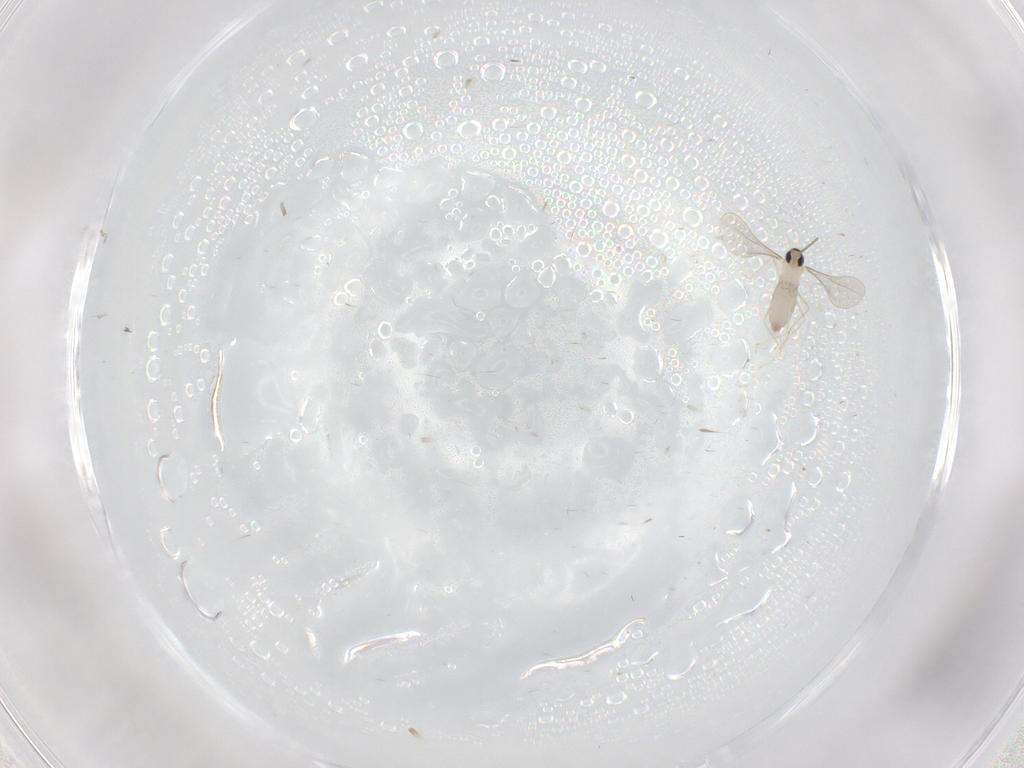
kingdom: Animalia
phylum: Arthropoda
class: Insecta
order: Diptera
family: Cecidomyiidae
